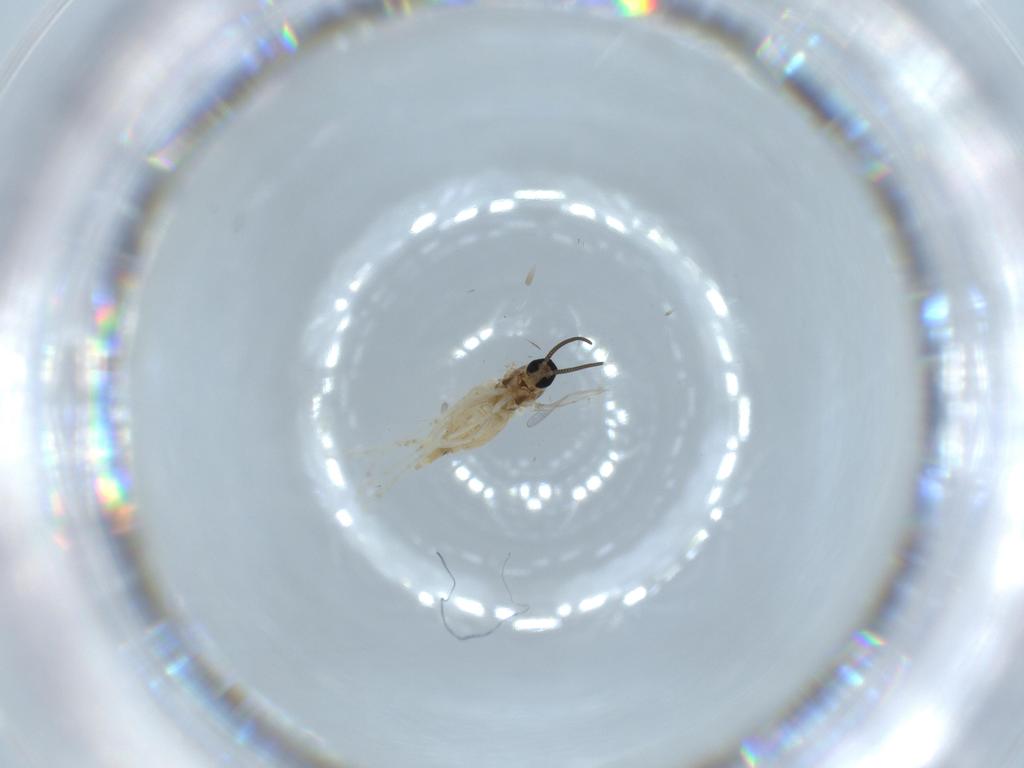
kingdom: Animalia
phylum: Arthropoda
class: Insecta
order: Diptera
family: Cecidomyiidae
